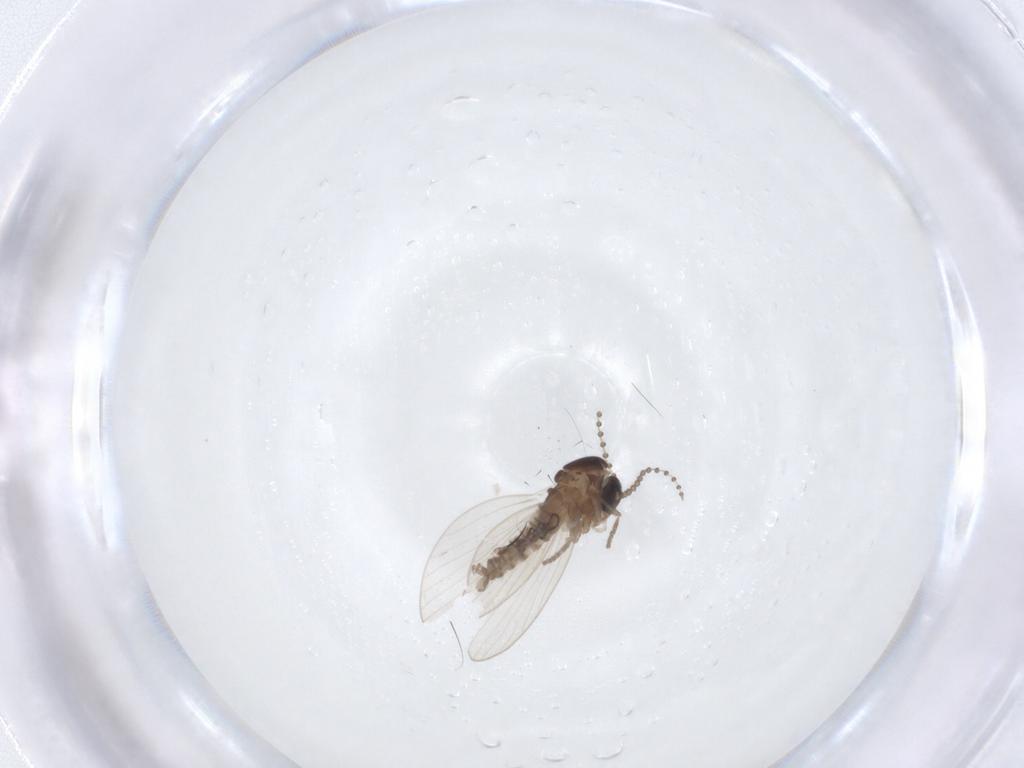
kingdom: Animalia
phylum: Arthropoda
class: Insecta
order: Diptera
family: Psychodidae
